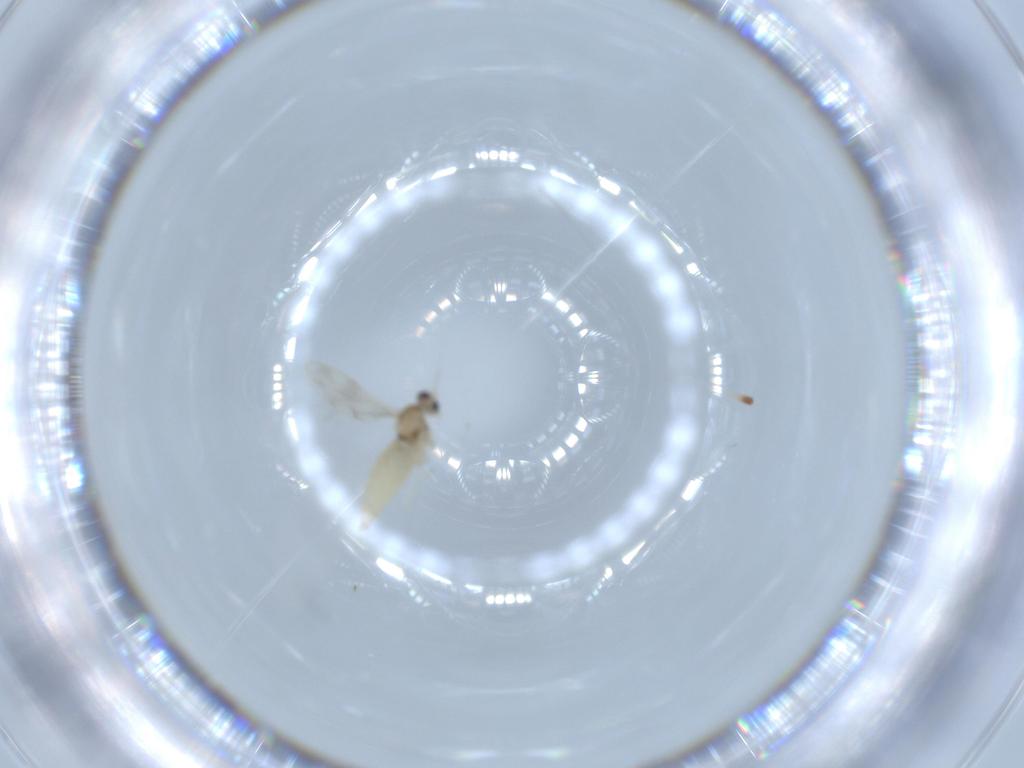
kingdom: Animalia
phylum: Arthropoda
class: Insecta
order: Diptera
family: Cecidomyiidae
